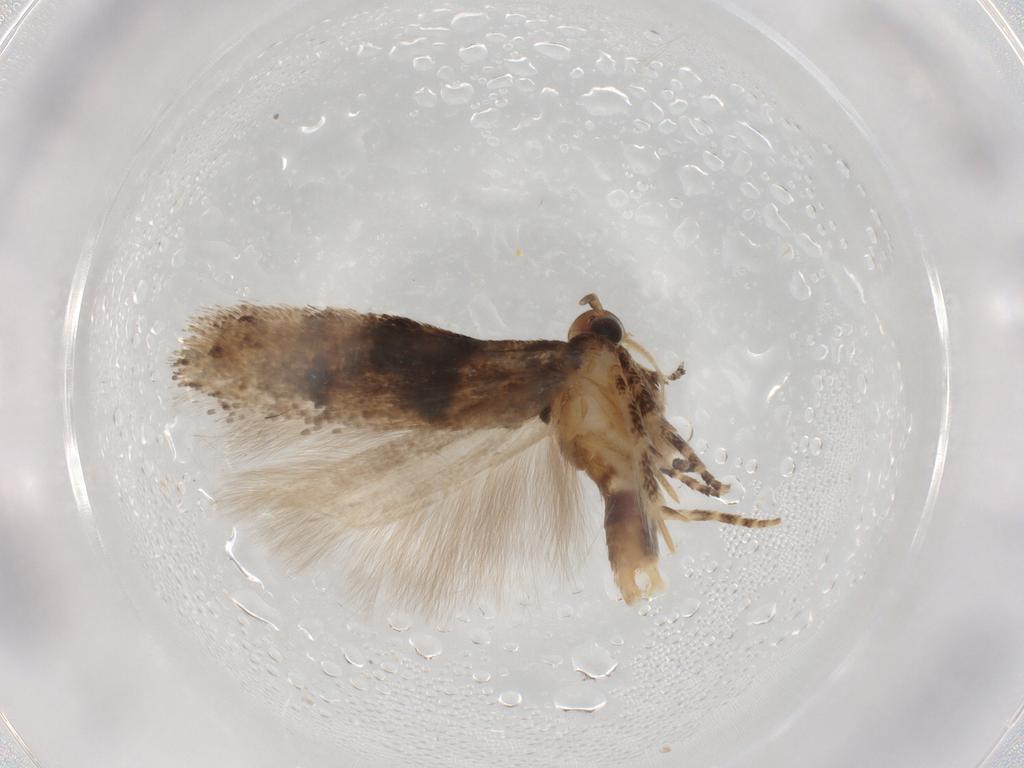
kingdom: Animalia
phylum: Arthropoda
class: Insecta
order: Lepidoptera
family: Gelechiidae
